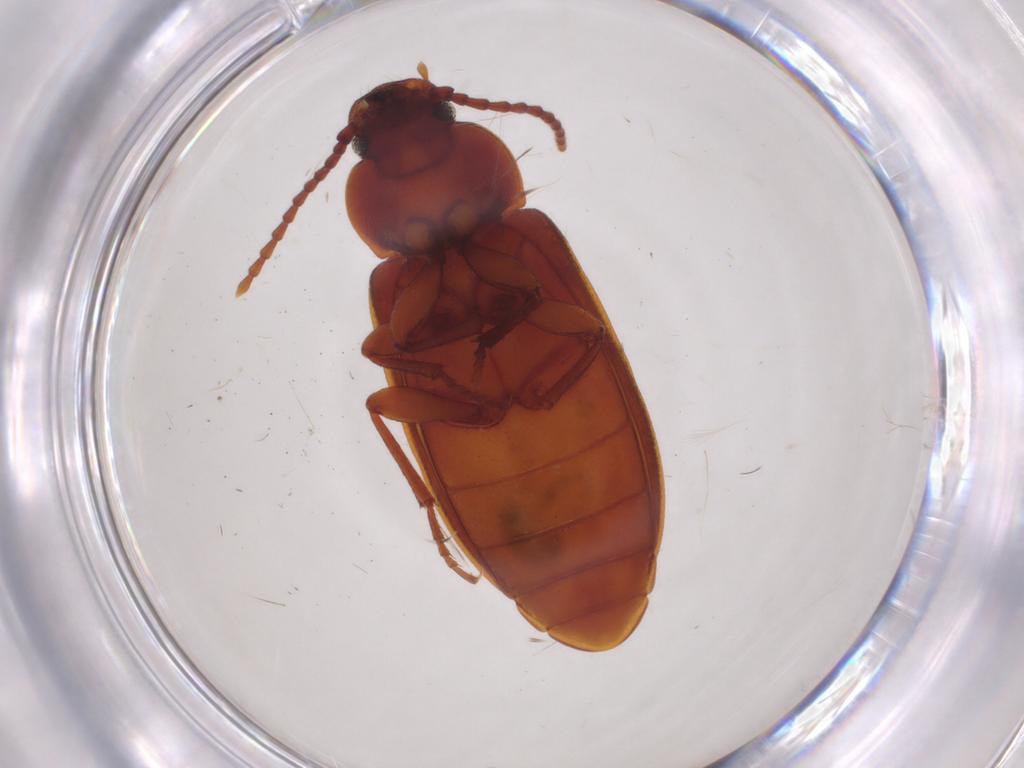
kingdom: Animalia
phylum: Arthropoda
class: Insecta
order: Coleoptera
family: Tenebrionidae
